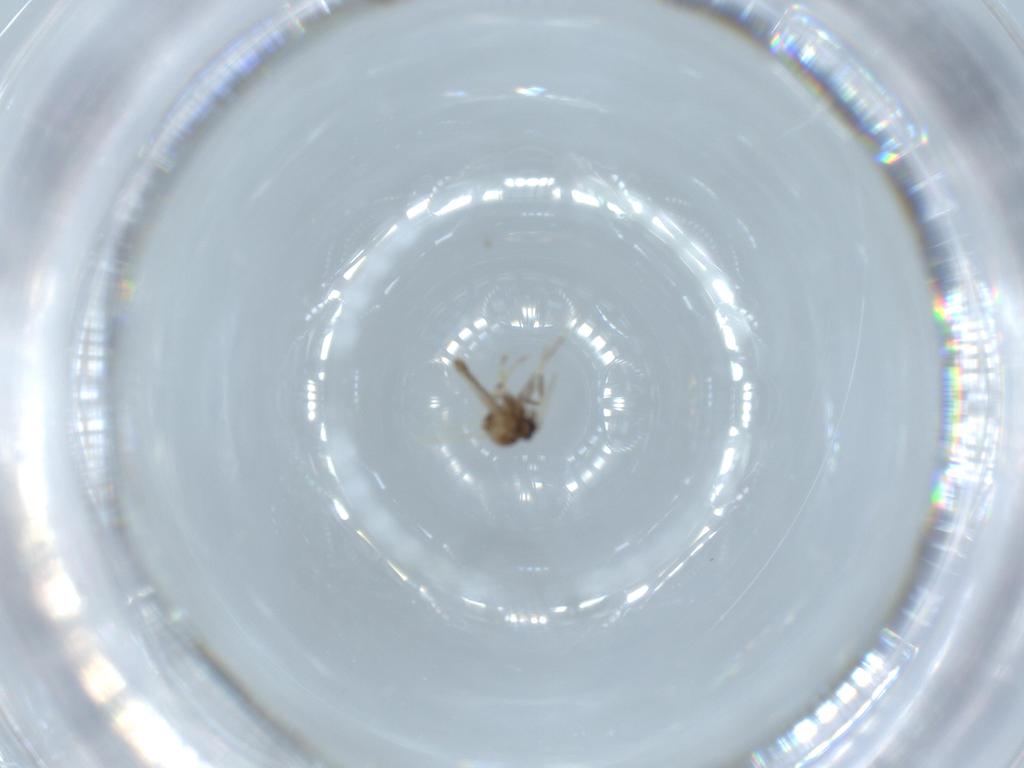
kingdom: Animalia
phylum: Arthropoda
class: Insecta
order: Diptera
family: Ceratopogonidae
